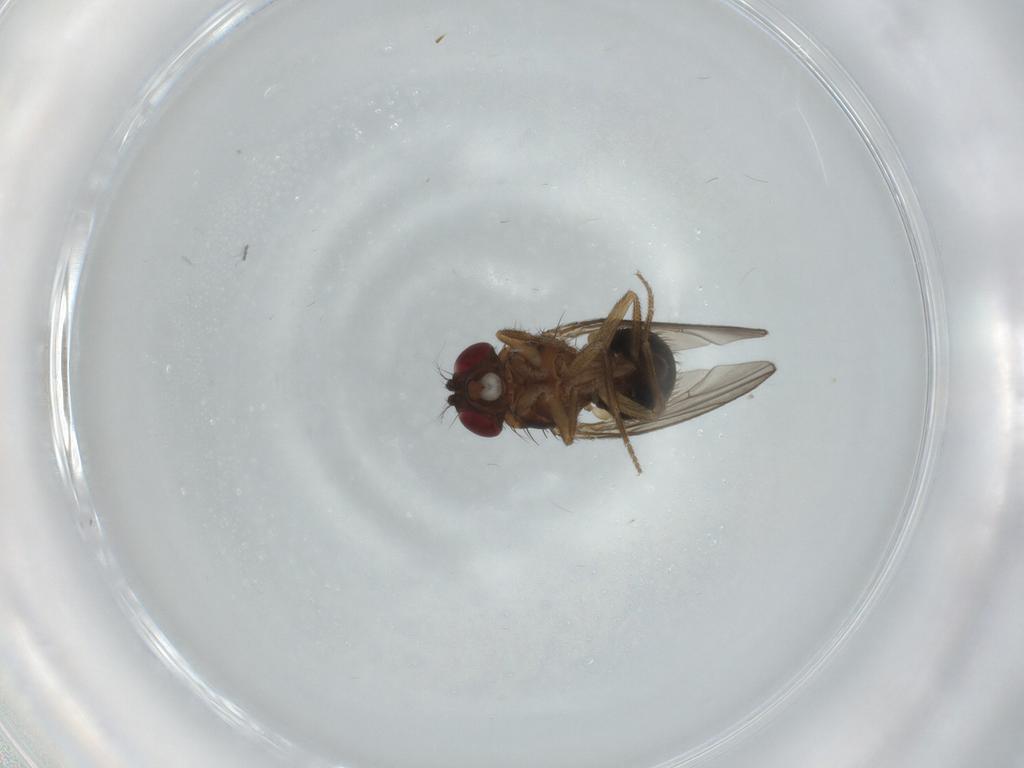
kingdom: Animalia
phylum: Arthropoda
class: Insecta
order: Diptera
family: Drosophilidae
